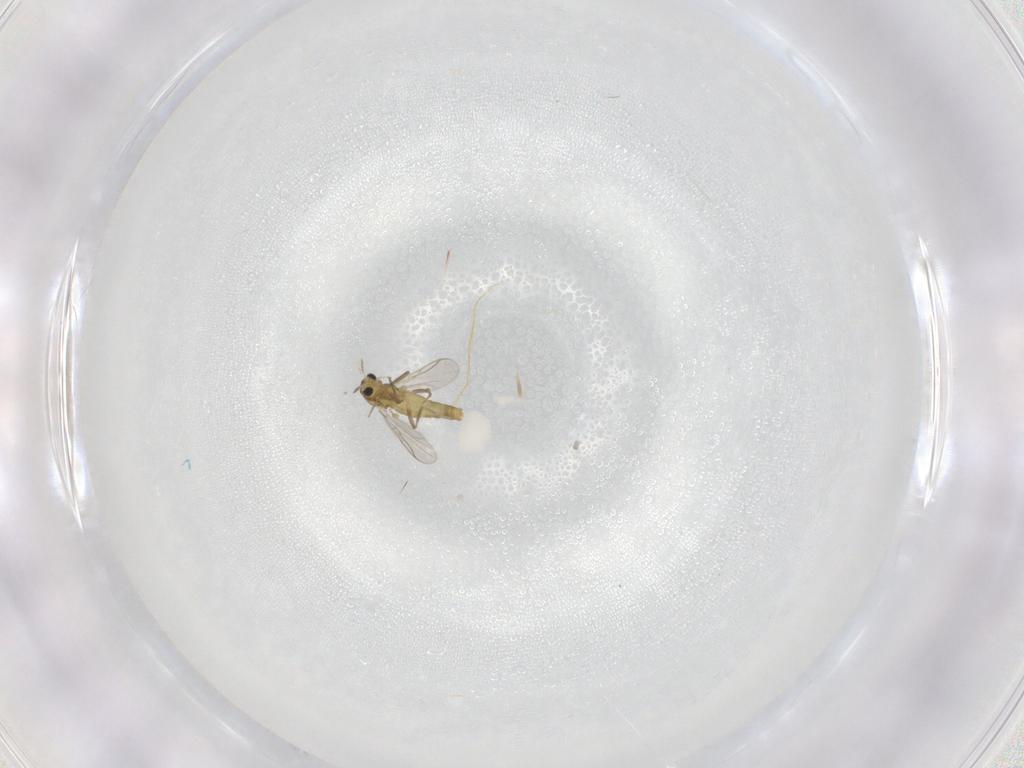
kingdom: Animalia
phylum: Arthropoda
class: Insecta
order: Diptera
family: Chironomidae
